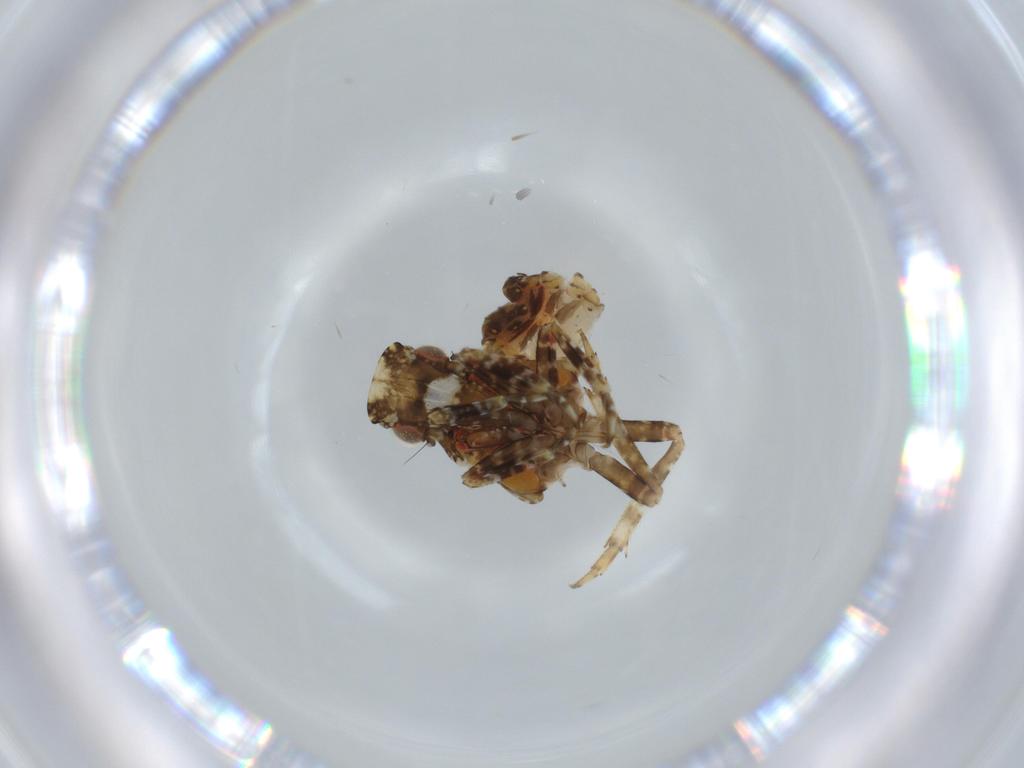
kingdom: Animalia
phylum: Arthropoda
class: Insecta
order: Hemiptera
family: Fulgoridae
